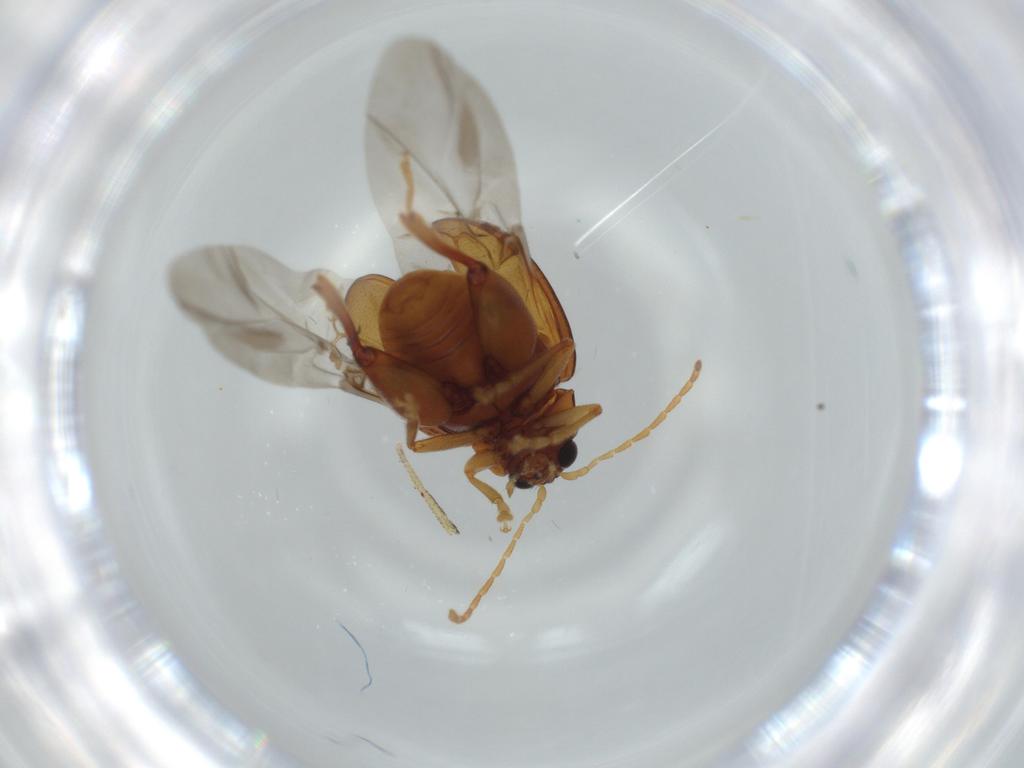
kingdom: Animalia
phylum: Arthropoda
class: Insecta
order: Coleoptera
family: Chrysomelidae
